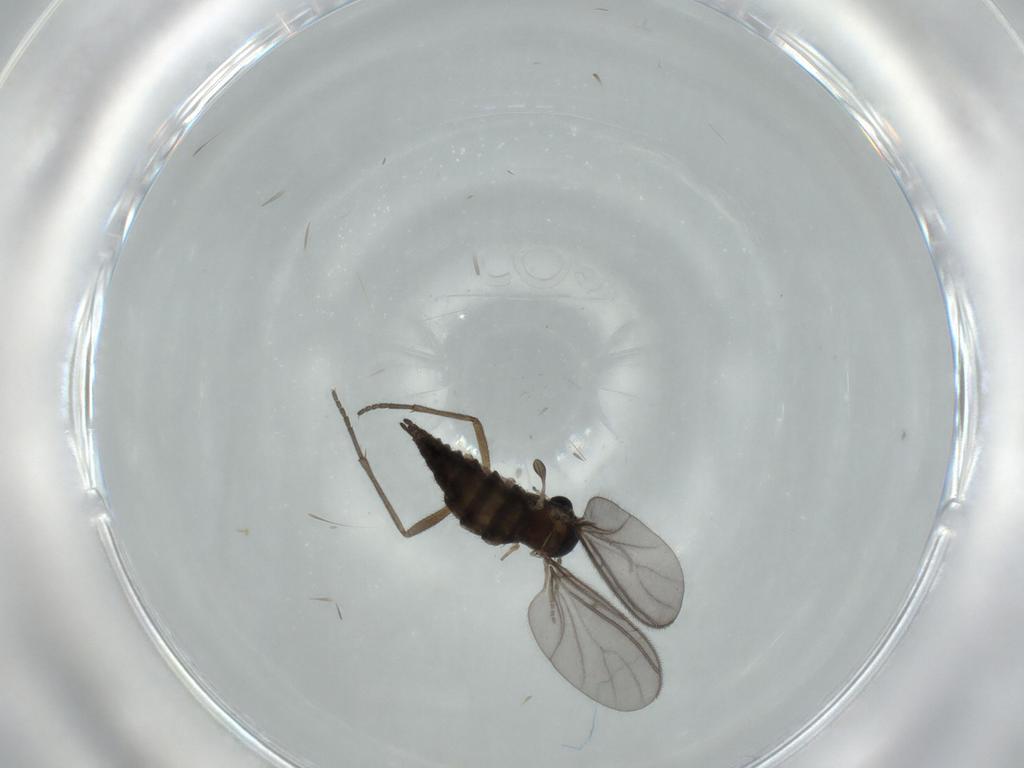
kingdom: Animalia
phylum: Arthropoda
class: Insecta
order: Diptera
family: Sciaridae
